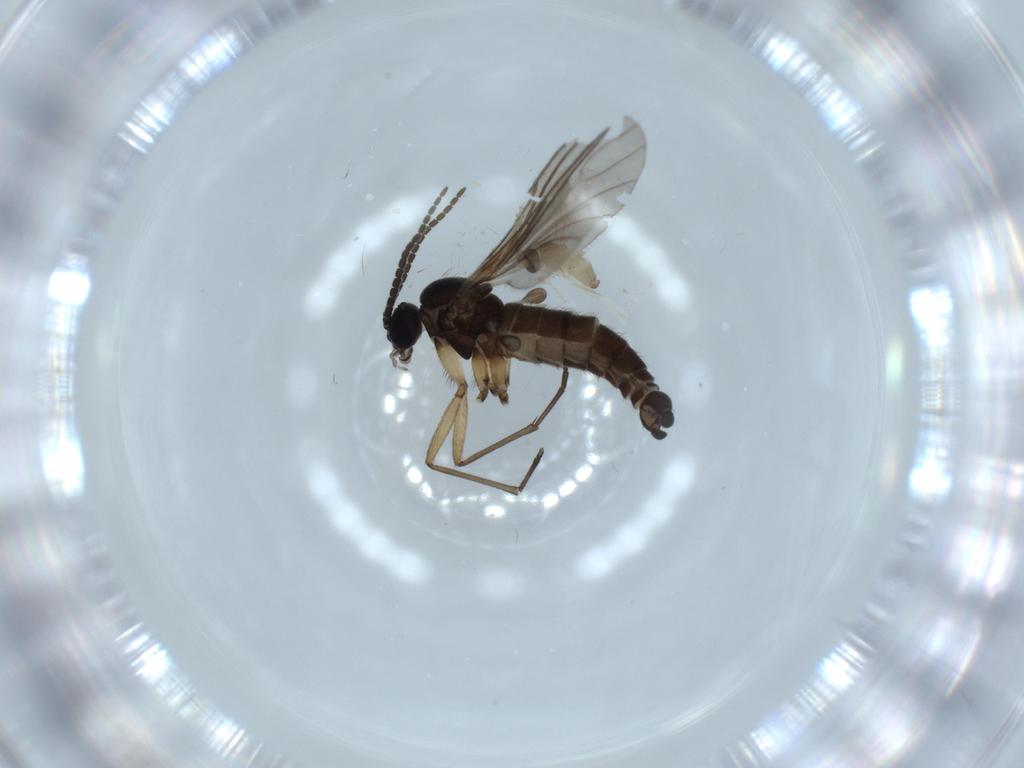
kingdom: Animalia
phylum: Arthropoda
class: Insecta
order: Diptera
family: Sciaridae
